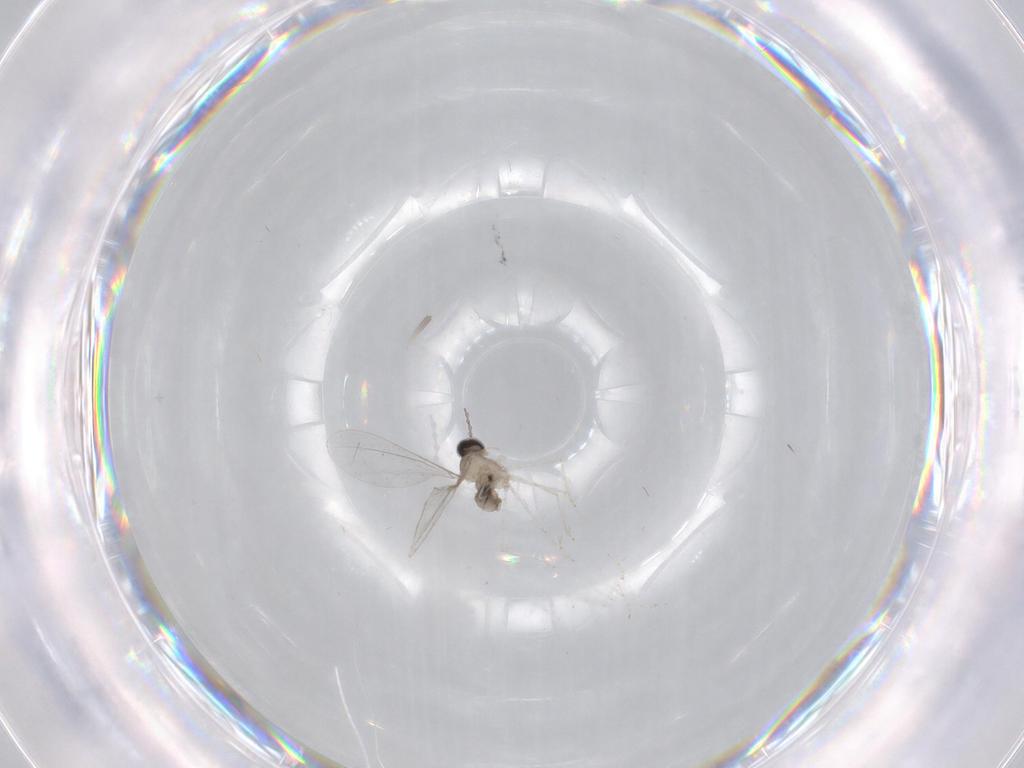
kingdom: Animalia
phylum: Arthropoda
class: Insecta
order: Diptera
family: Cecidomyiidae
